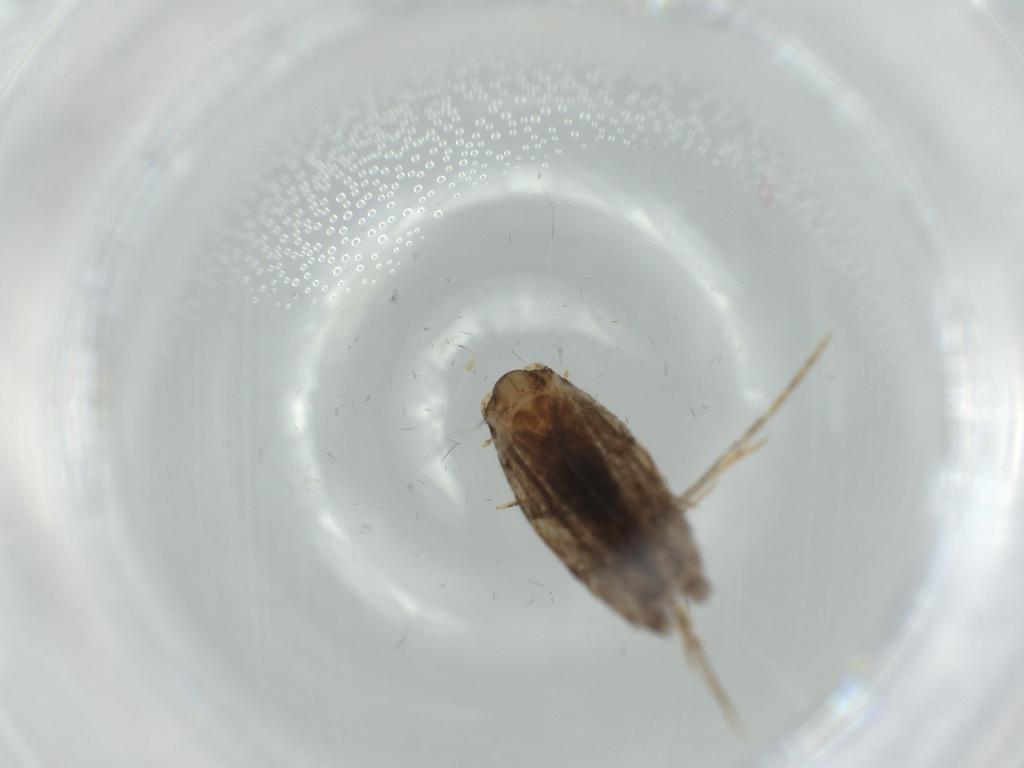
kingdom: Animalia
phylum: Arthropoda
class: Insecta
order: Lepidoptera
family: Tineidae
